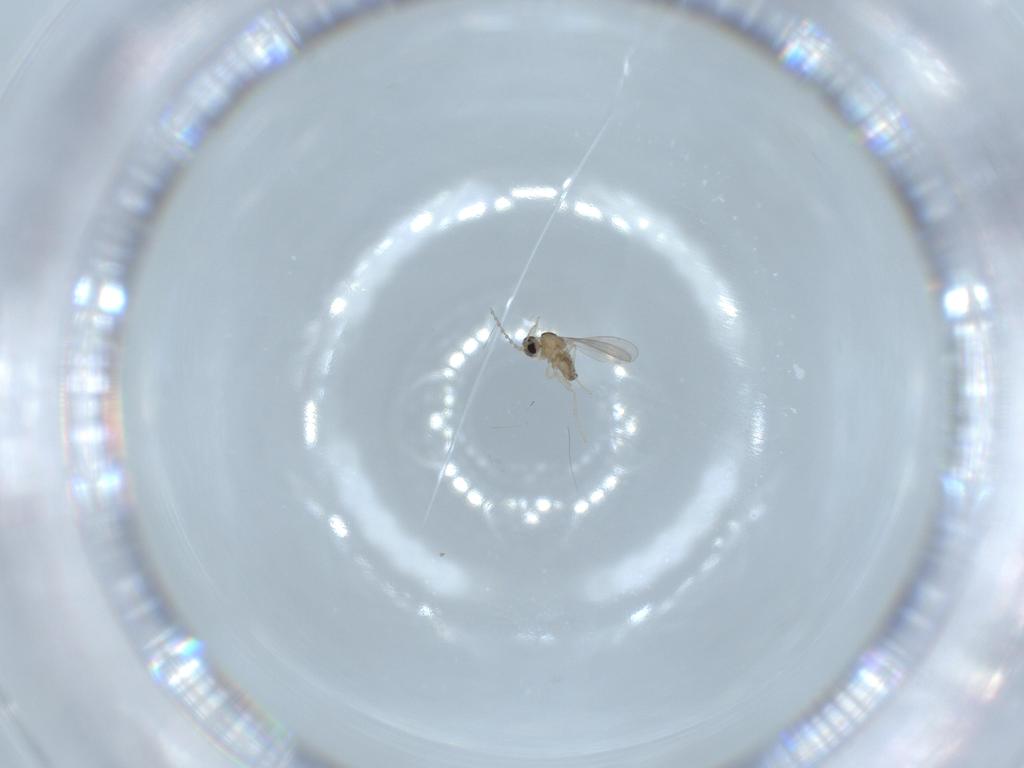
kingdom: Animalia
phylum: Arthropoda
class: Insecta
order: Diptera
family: Cecidomyiidae
